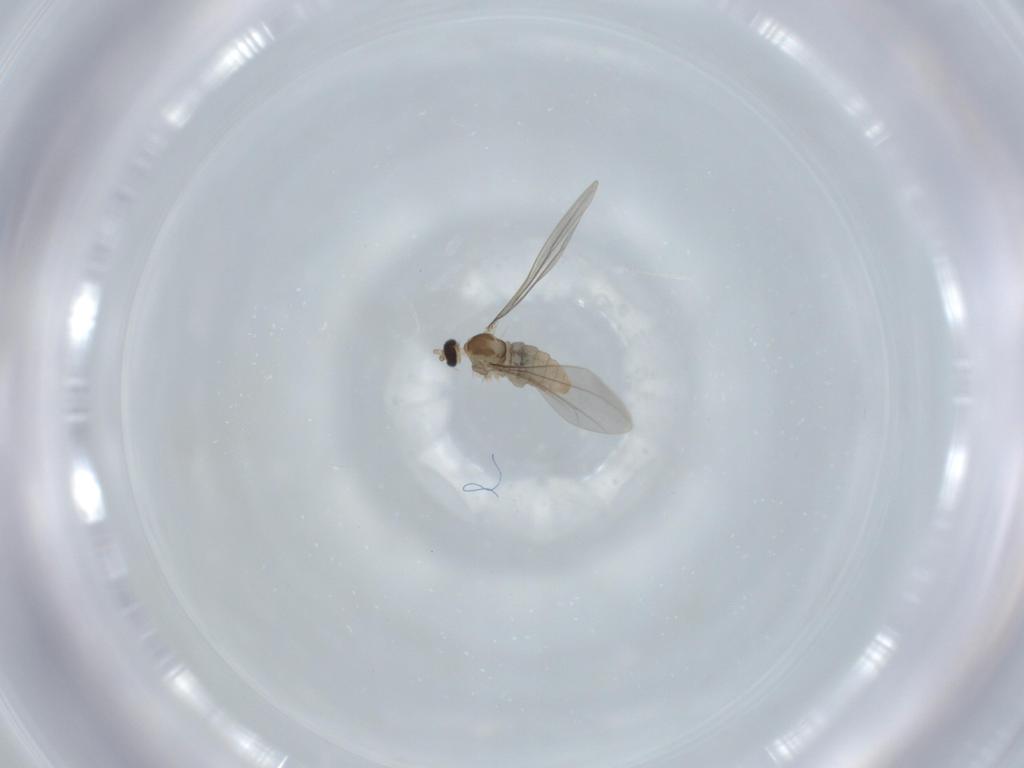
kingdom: Animalia
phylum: Arthropoda
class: Insecta
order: Diptera
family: Cecidomyiidae
